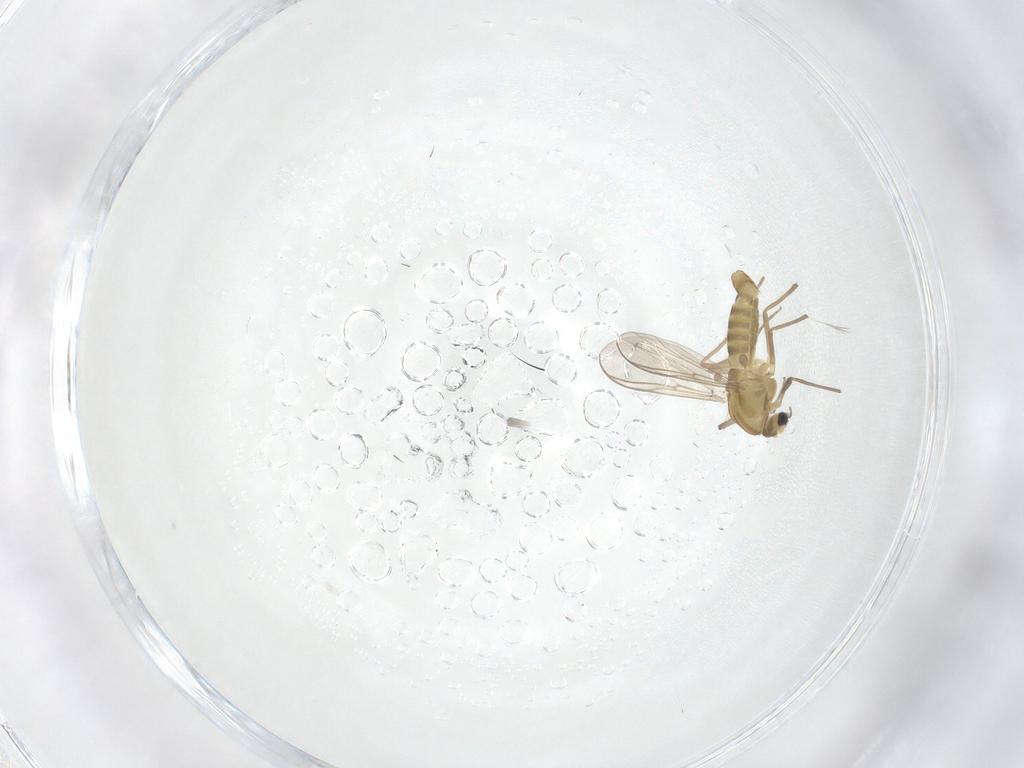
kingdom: Animalia
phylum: Arthropoda
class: Insecta
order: Diptera
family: Chironomidae
